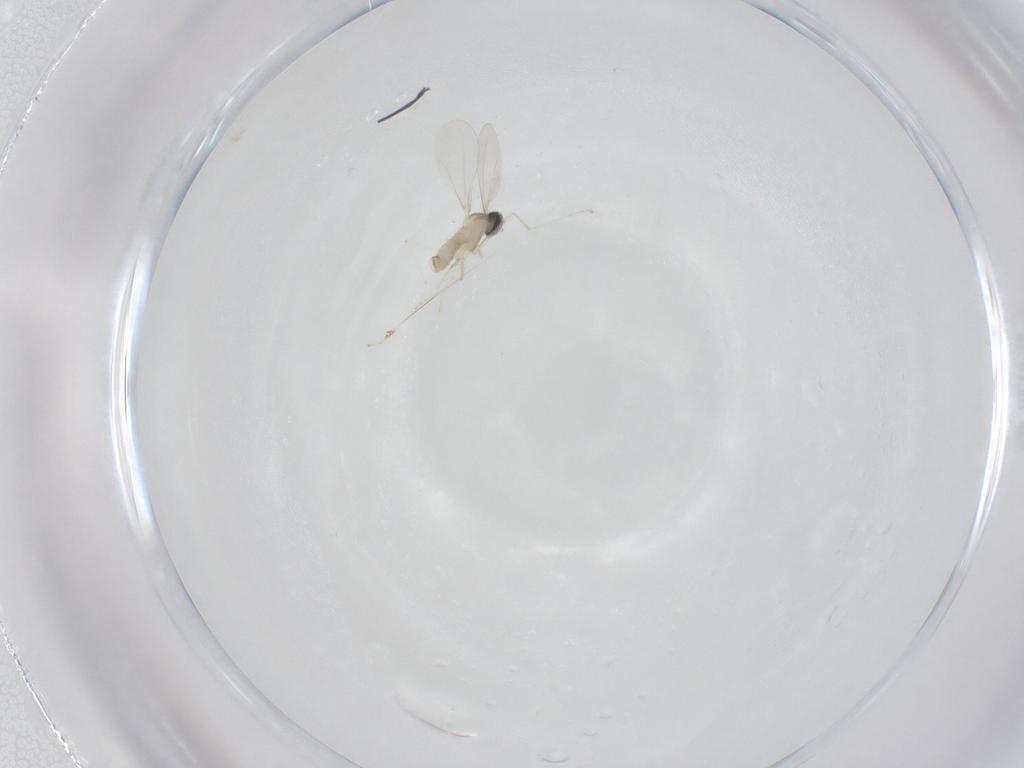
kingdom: Animalia
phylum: Arthropoda
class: Insecta
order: Diptera
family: Cecidomyiidae
